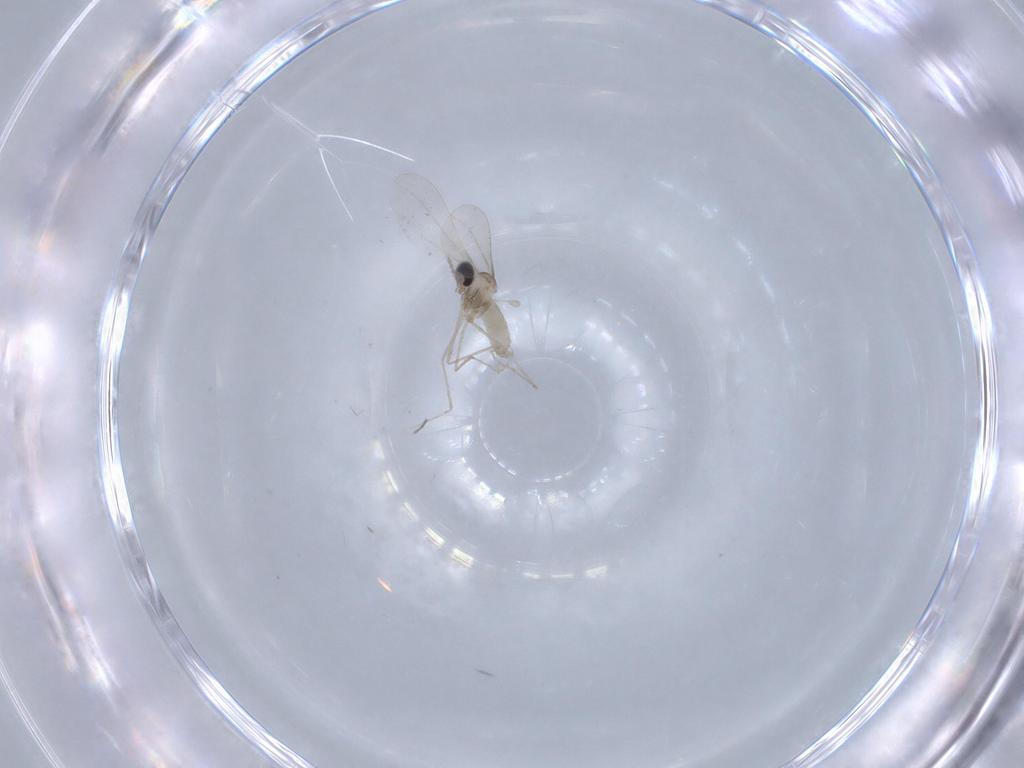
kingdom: Animalia
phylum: Arthropoda
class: Insecta
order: Diptera
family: Cecidomyiidae
